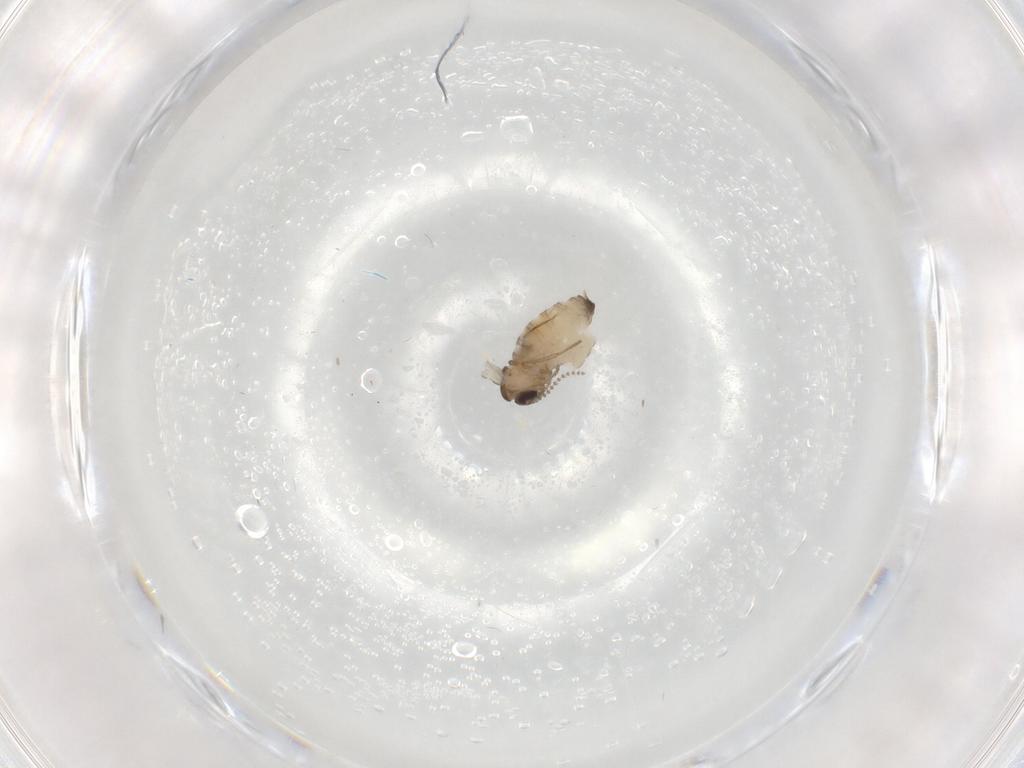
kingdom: Animalia
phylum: Arthropoda
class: Insecta
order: Diptera
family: Psychodidae
